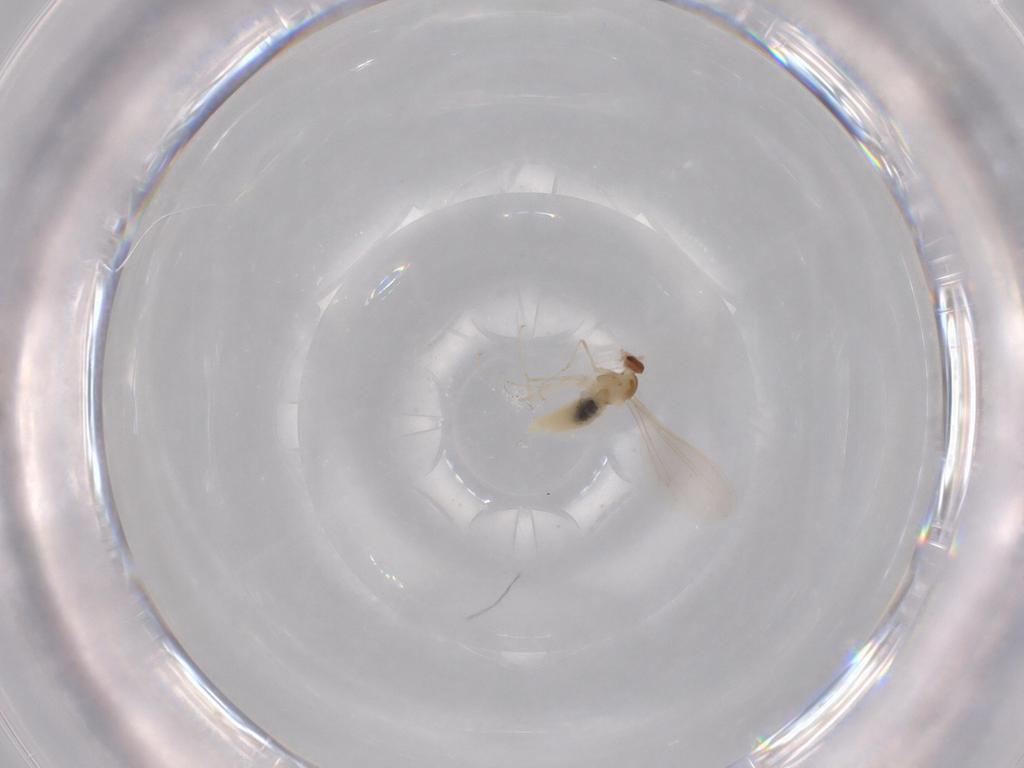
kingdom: Animalia
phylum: Arthropoda
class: Insecta
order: Diptera
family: Cecidomyiidae
